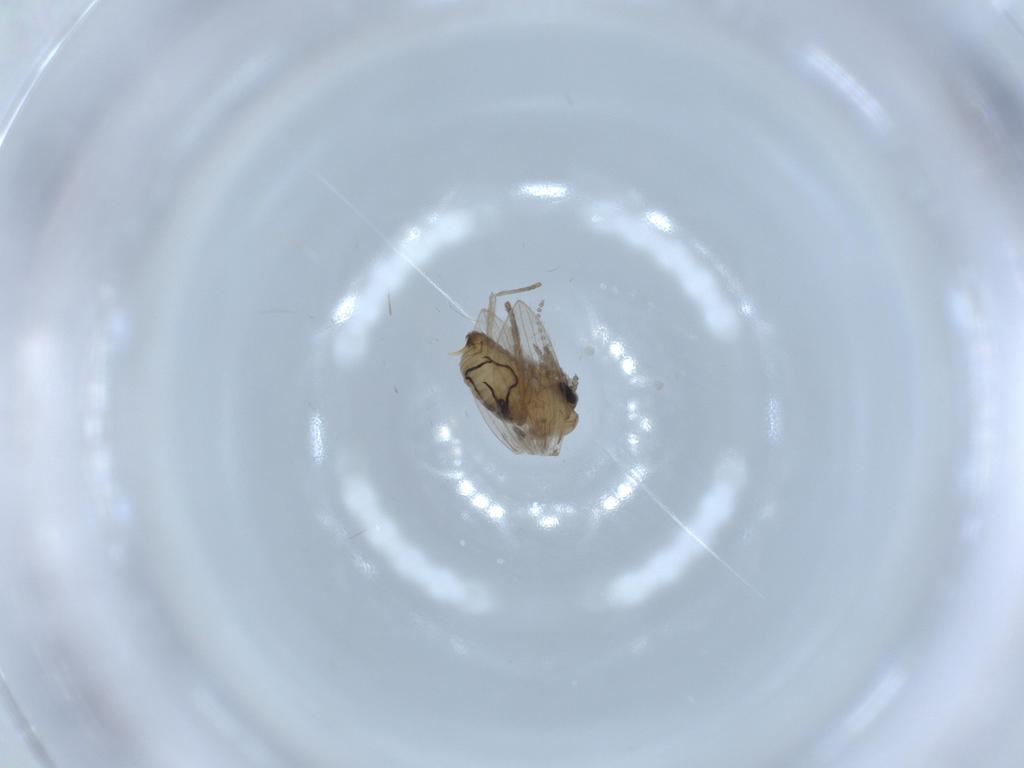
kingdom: Animalia
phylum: Arthropoda
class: Insecta
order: Diptera
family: Psychodidae
